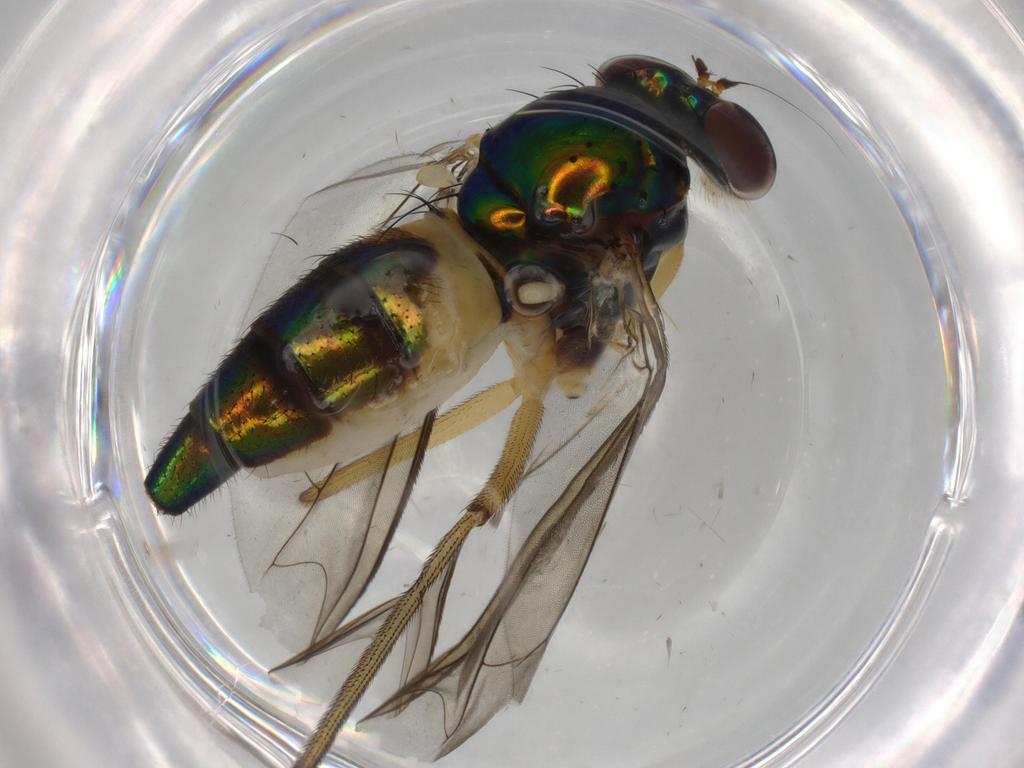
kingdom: Animalia
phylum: Arthropoda
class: Insecta
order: Diptera
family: Dolichopodidae
